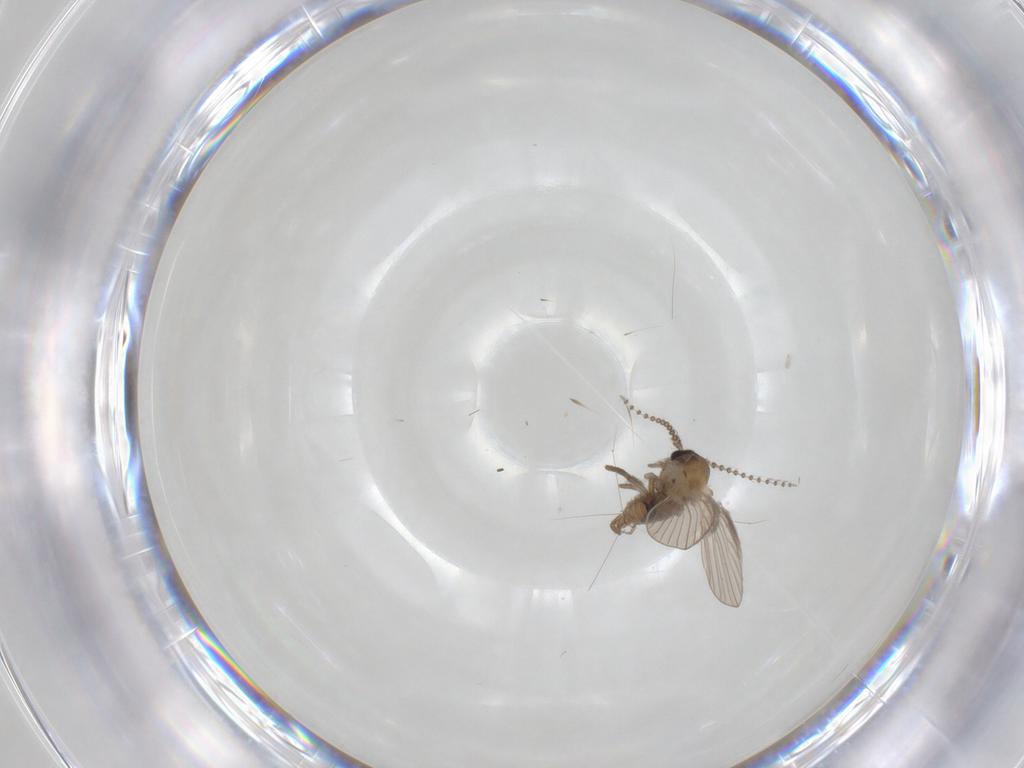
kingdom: Animalia
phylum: Arthropoda
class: Insecta
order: Diptera
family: Psychodidae
